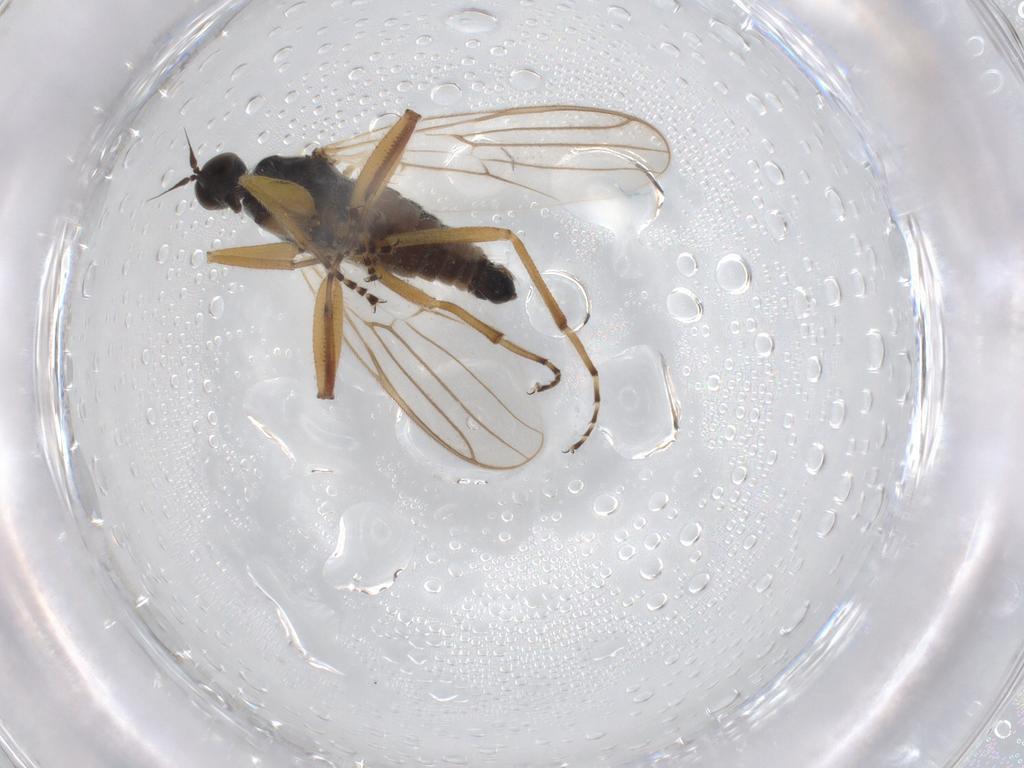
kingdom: Animalia
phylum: Arthropoda
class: Insecta
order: Diptera
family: Hybotidae
